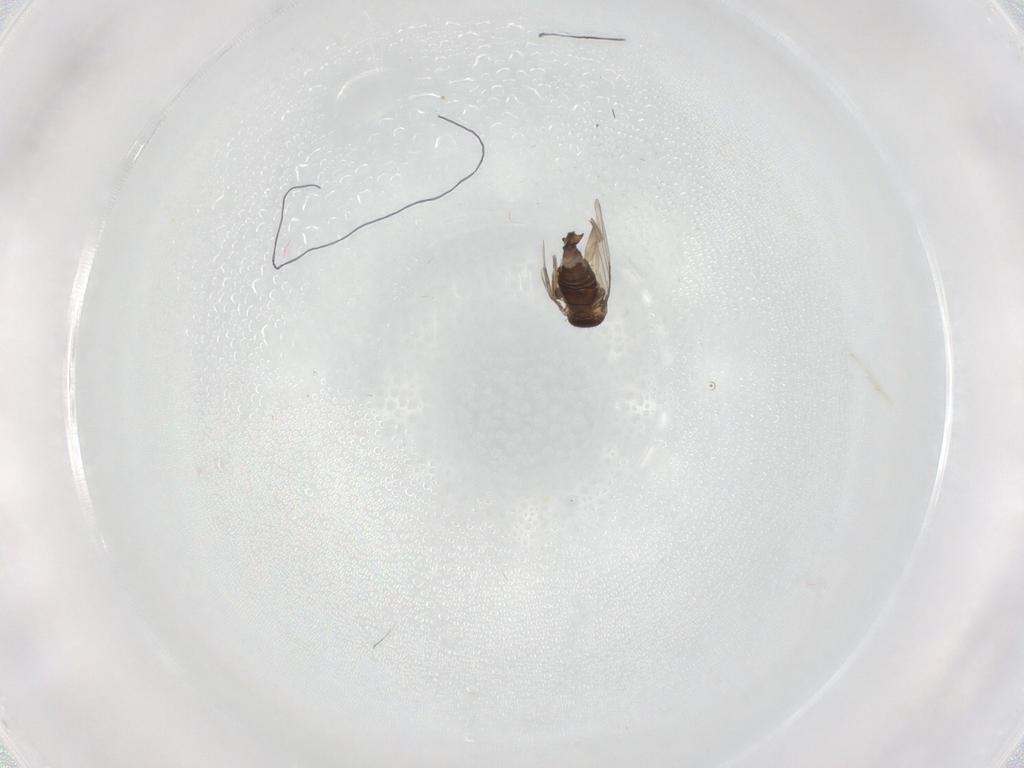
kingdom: Animalia
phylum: Arthropoda
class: Insecta
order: Diptera
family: Phoridae
